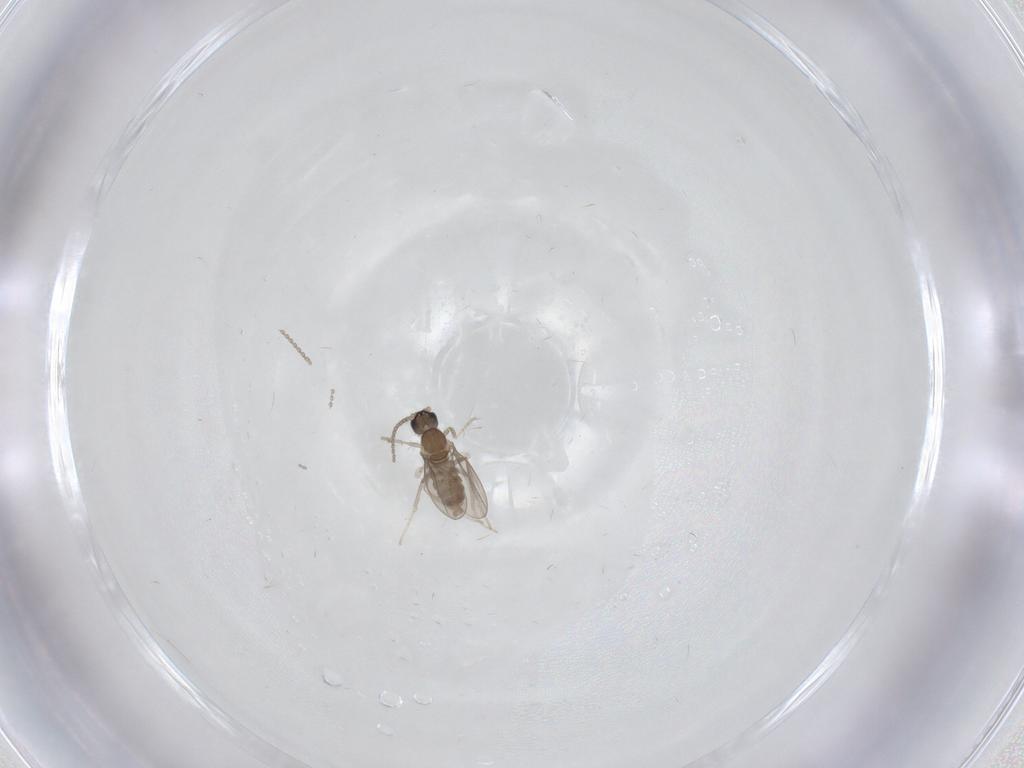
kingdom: Animalia
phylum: Arthropoda
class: Insecta
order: Diptera
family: Cecidomyiidae
